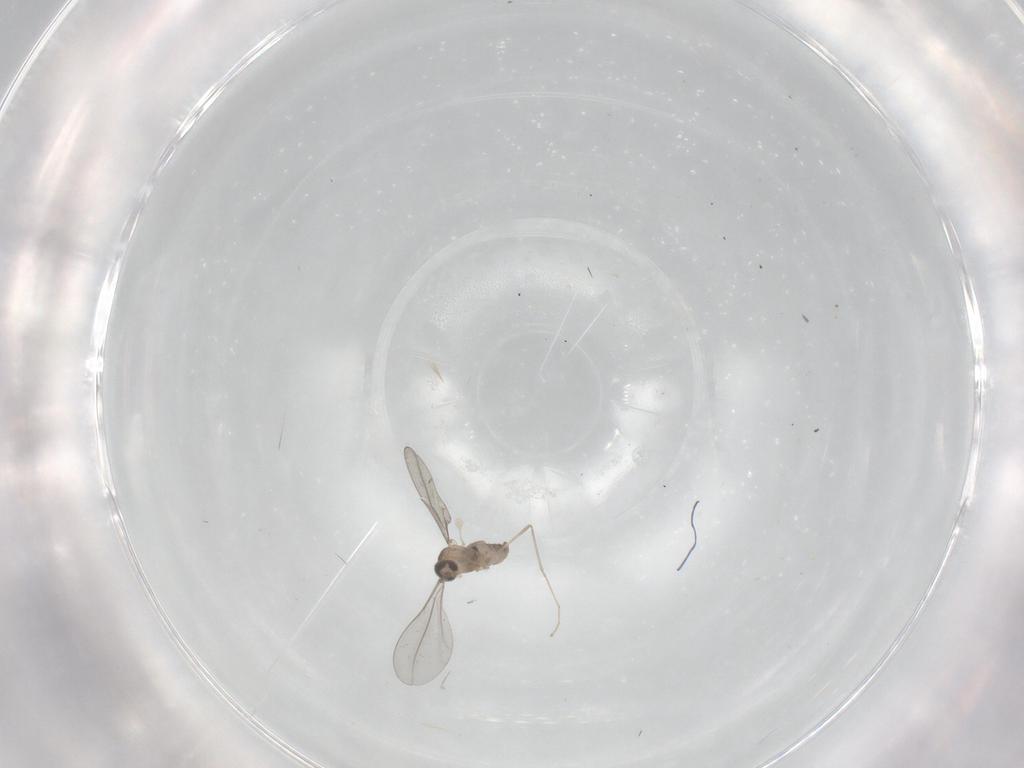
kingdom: Animalia
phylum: Arthropoda
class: Insecta
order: Diptera
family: Cecidomyiidae
